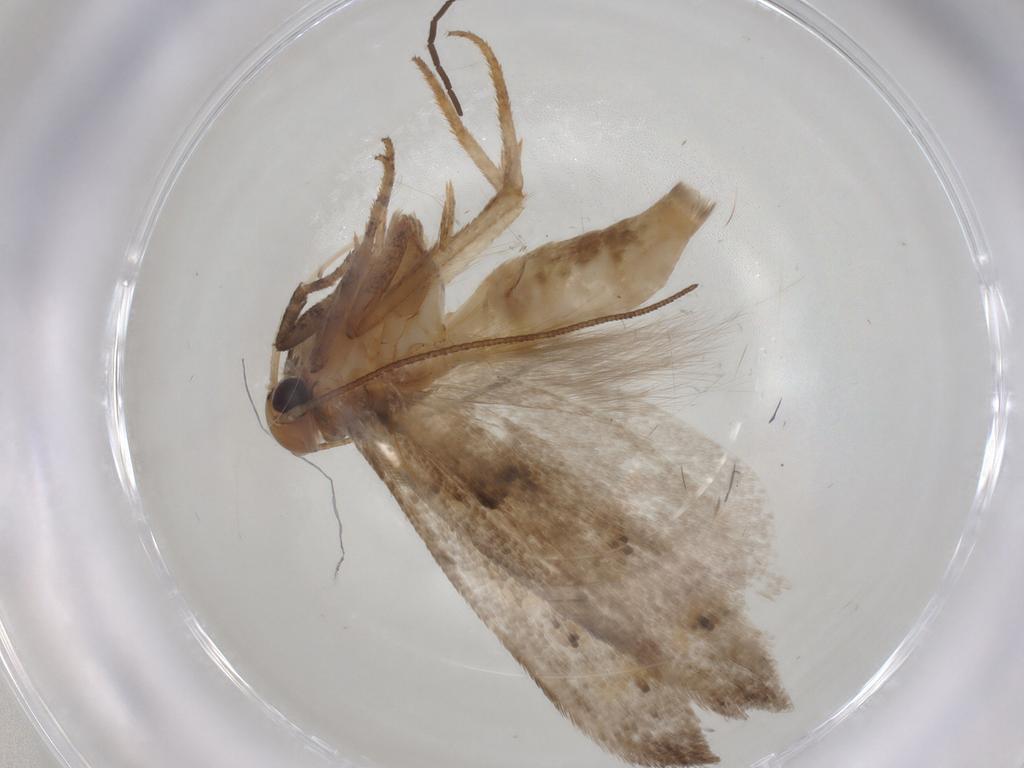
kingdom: Animalia
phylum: Arthropoda
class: Insecta
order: Lepidoptera
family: Gelechiidae
